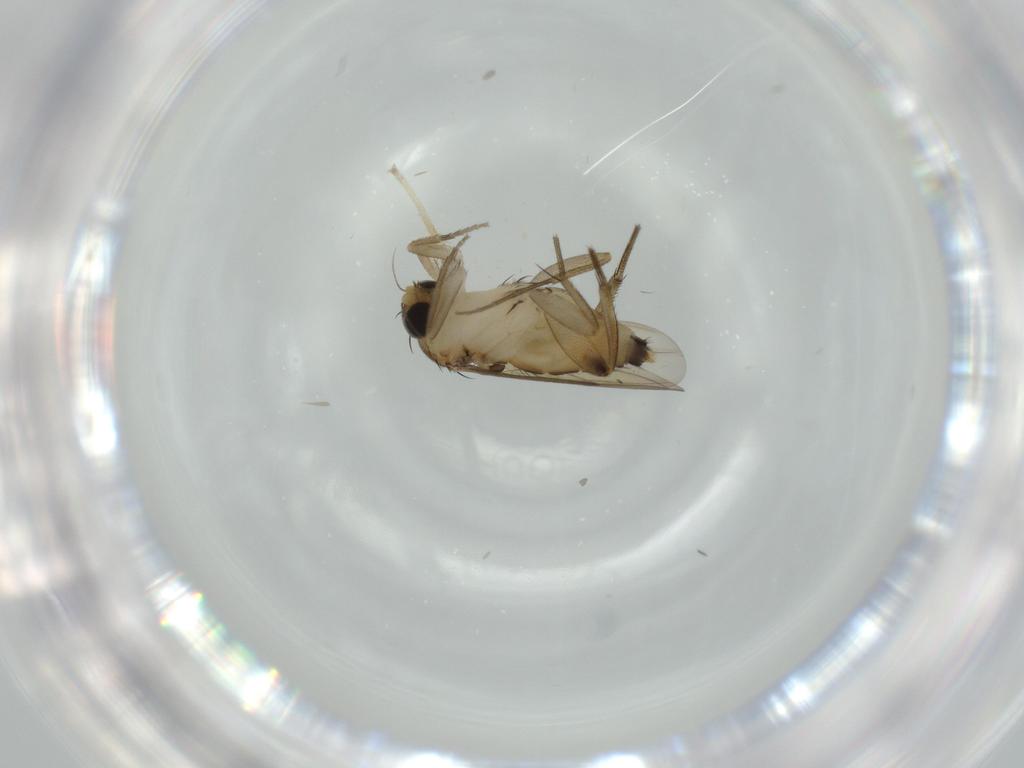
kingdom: Animalia
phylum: Arthropoda
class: Insecta
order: Diptera
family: Phoridae
